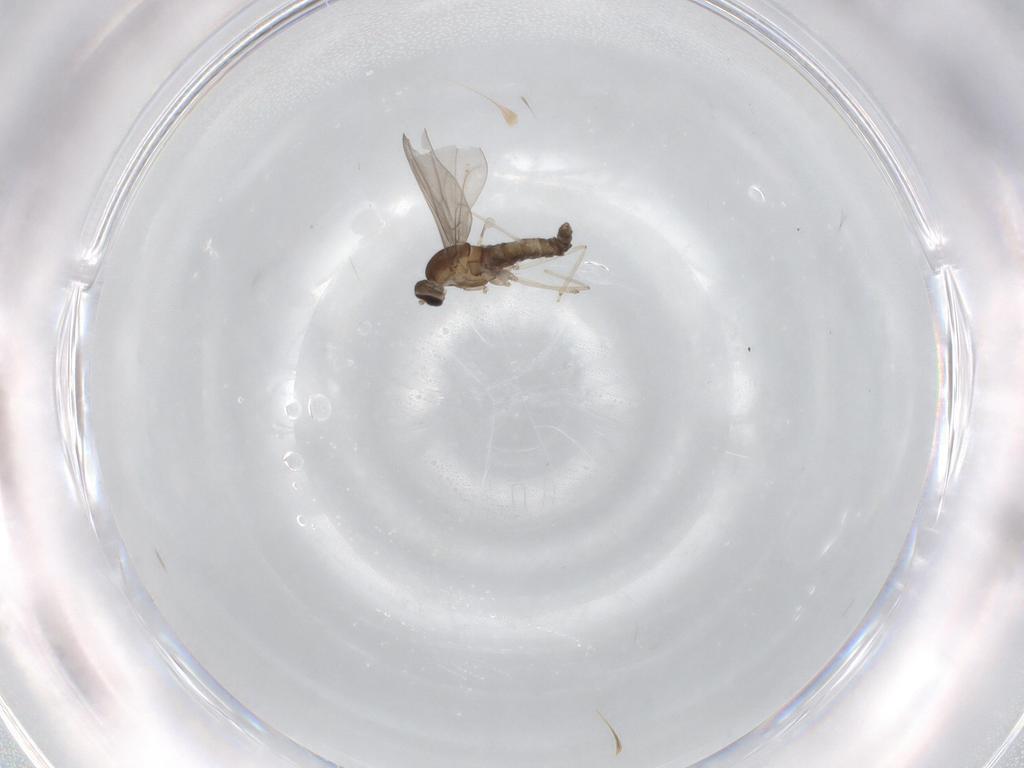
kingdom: Animalia
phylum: Arthropoda
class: Insecta
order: Diptera
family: Cecidomyiidae
